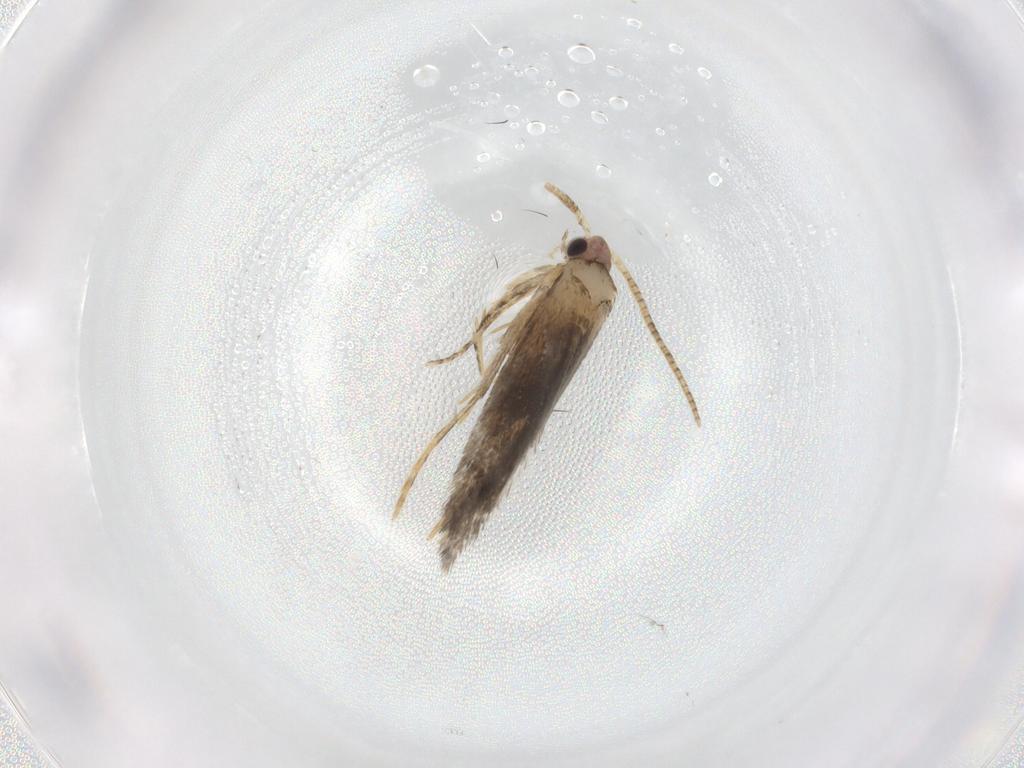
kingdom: Animalia
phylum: Arthropoda
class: Insecta
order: Lepidoptera
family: Tineidae
